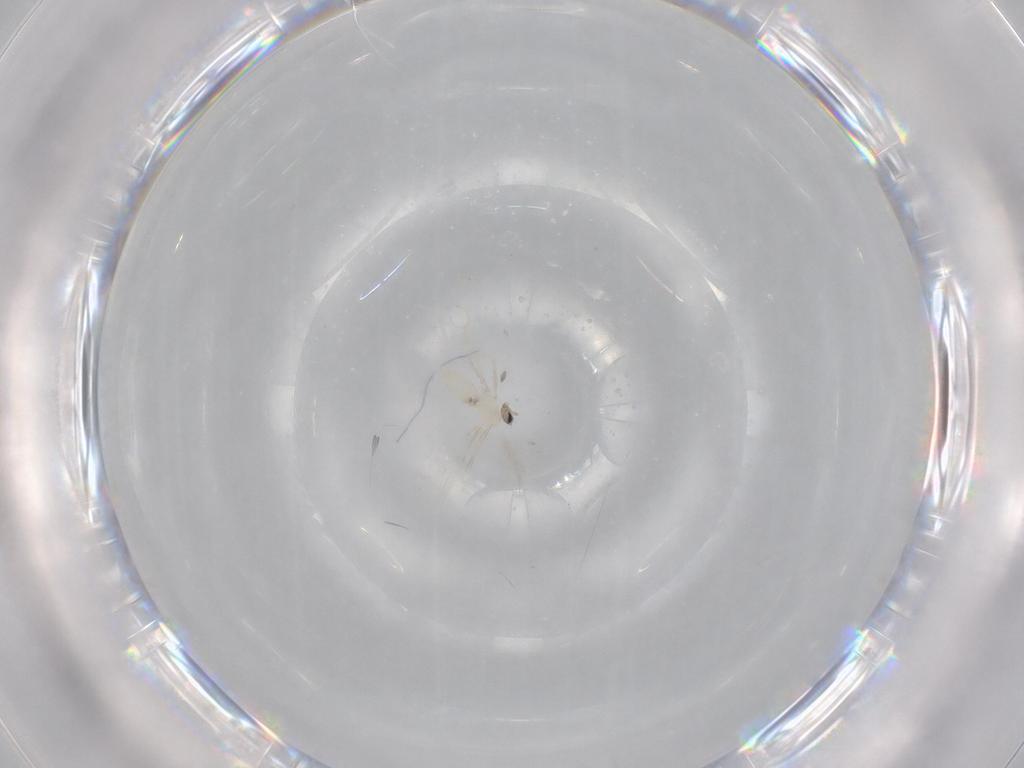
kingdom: Animalia
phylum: Arthropoda
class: Insecta
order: Diptera
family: Cecidomyiidae
